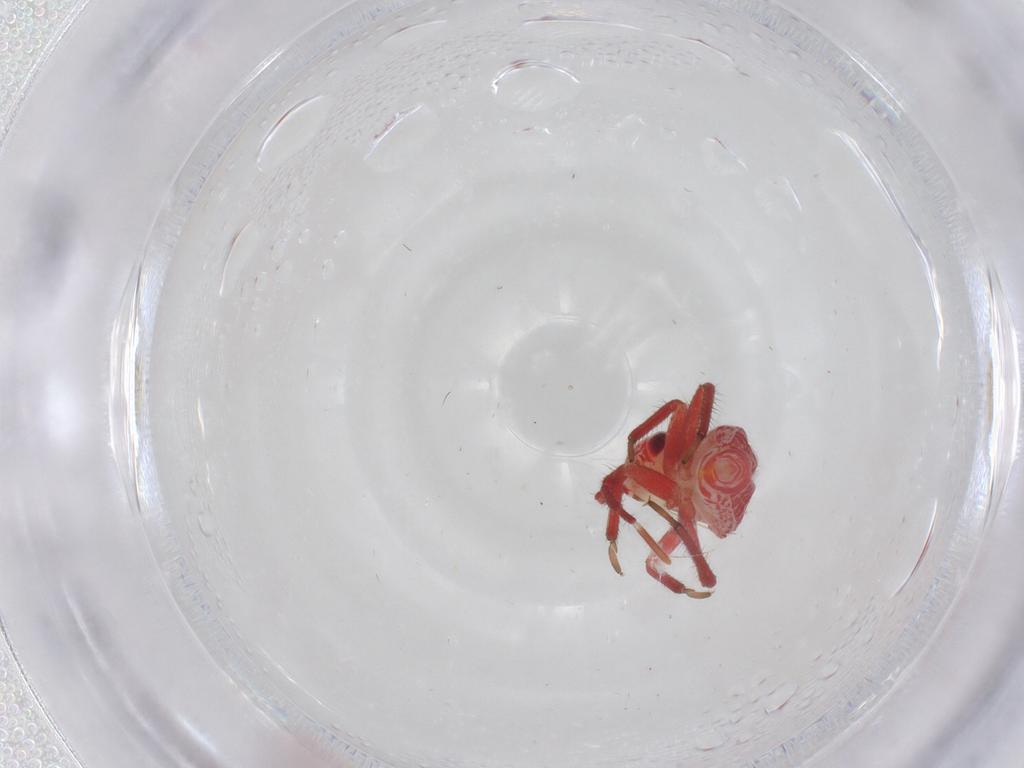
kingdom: Animalia
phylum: Arthropoda
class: Insecta
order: Hemiptera
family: Miridae
